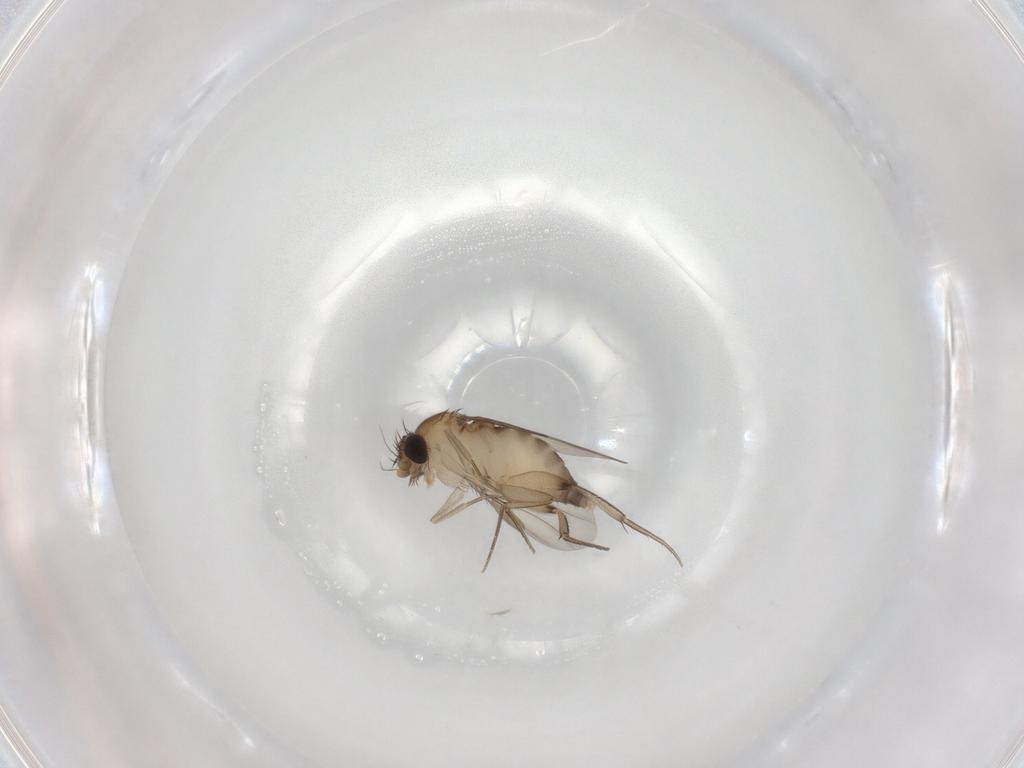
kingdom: Animalia
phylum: Arthropoda
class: Insecta
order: Diptera
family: Phoridae
